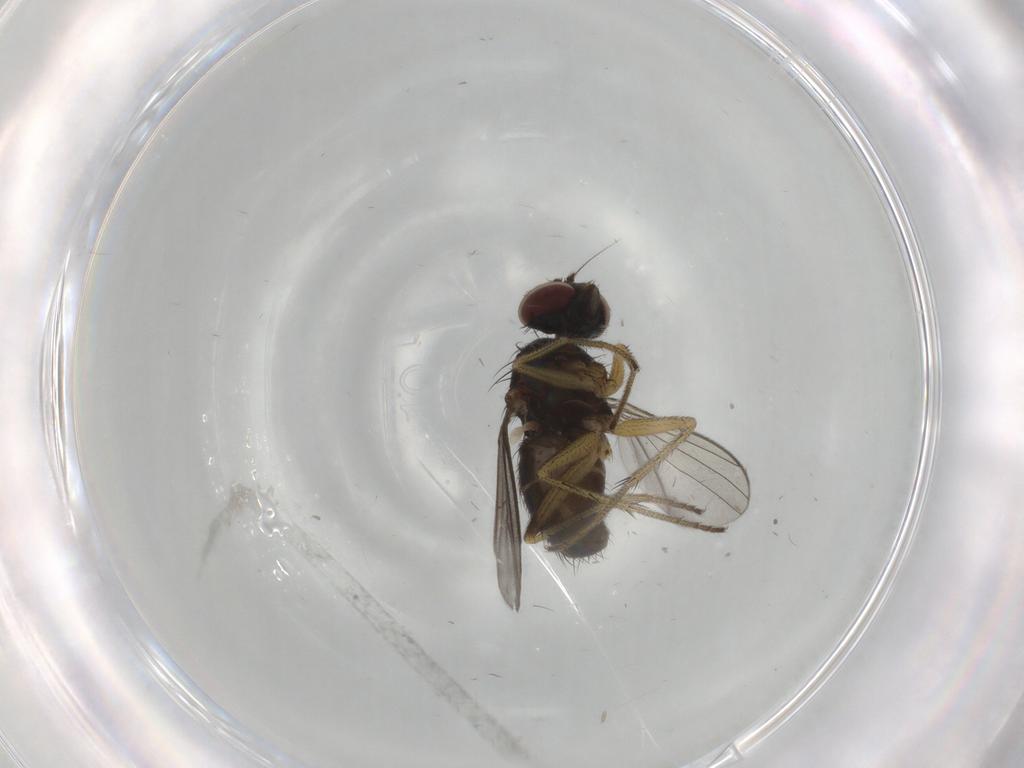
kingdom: Animalia
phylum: Arthropoda
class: Insecta
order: Diptera
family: Dolichopodidae
